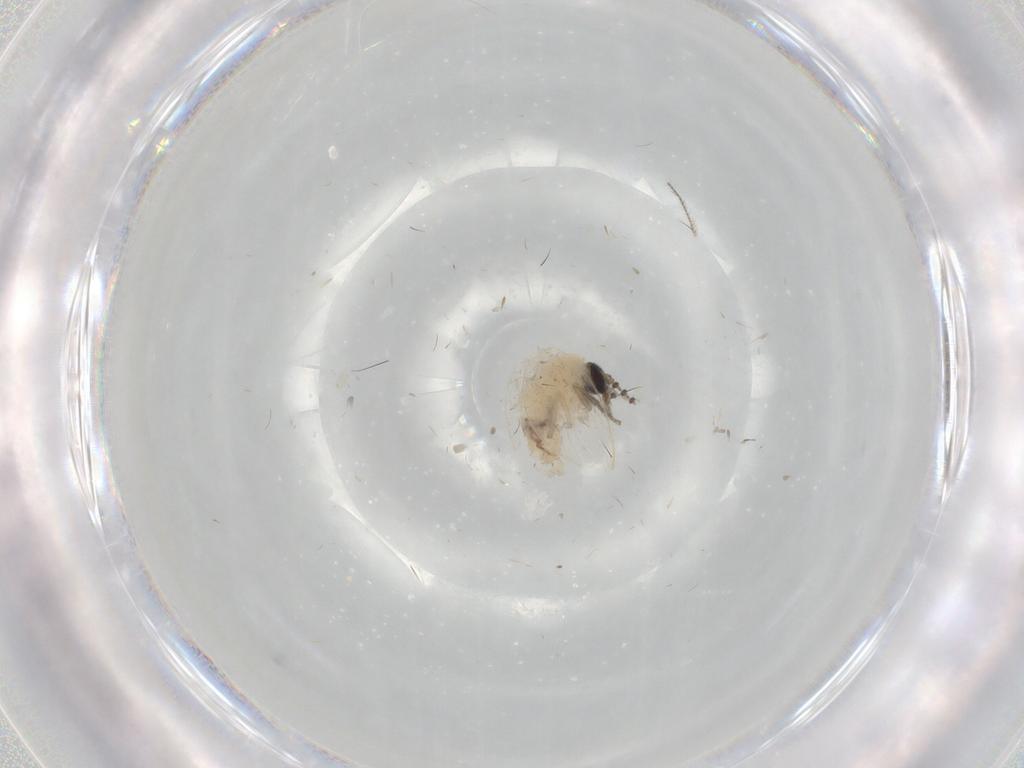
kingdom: Animalia
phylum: Arthropoda
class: Insecta
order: Diptera
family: Psychodidae
